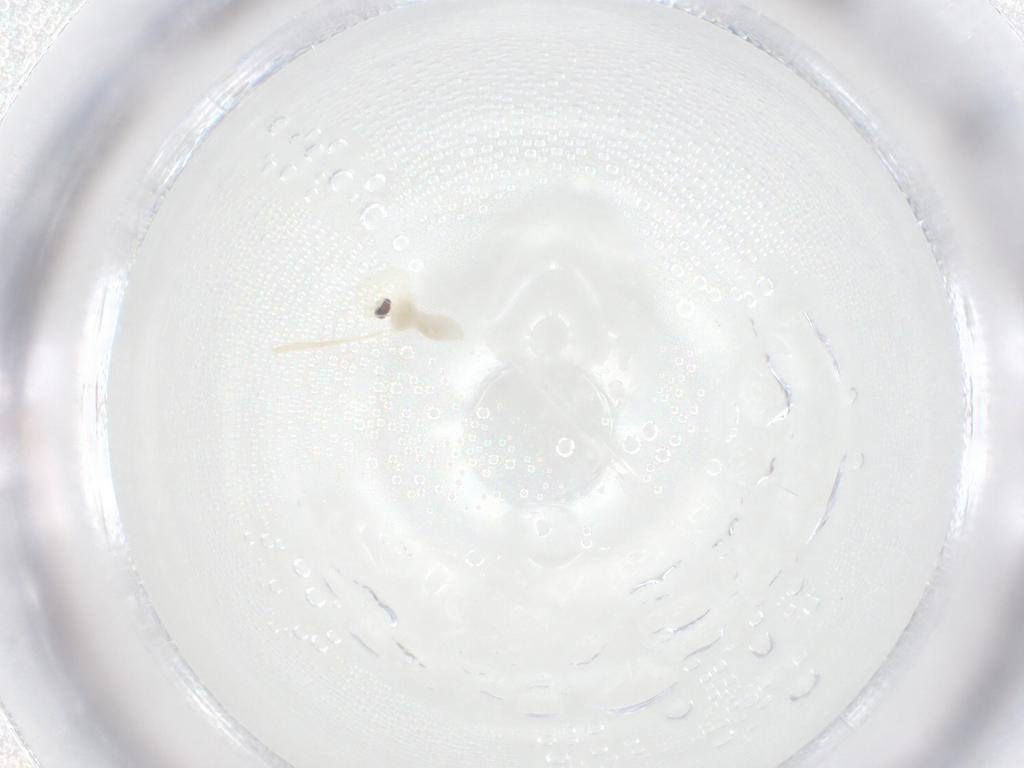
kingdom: Animalia
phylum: Arthropoda
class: Insecta
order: Diptera
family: Cecidomyiidae
